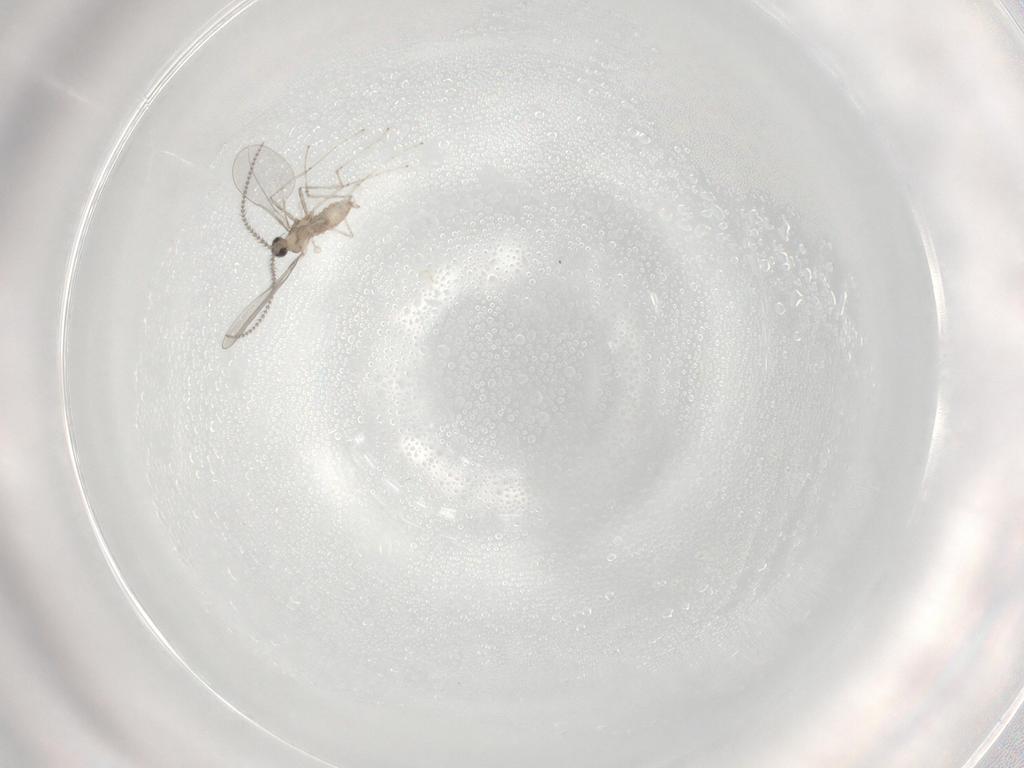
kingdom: Animalia
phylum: Arthropoda
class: Insecta
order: Diptera
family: Cecidomyiidae
